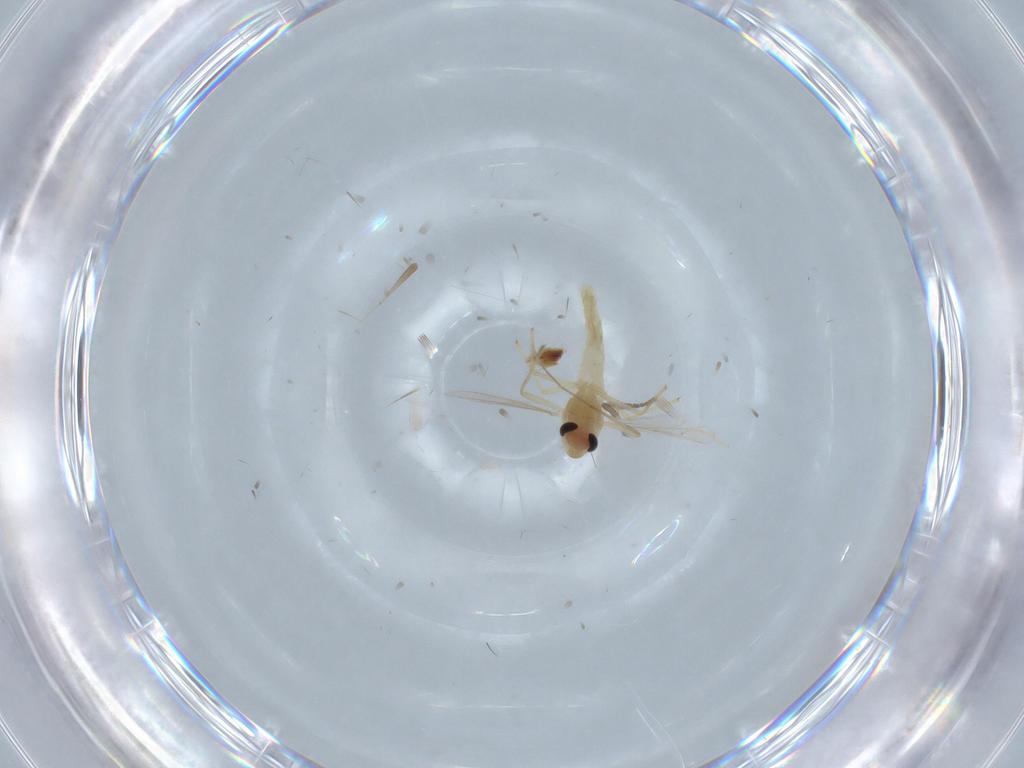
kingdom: Animalia
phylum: Arthropoda
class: Insecta
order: Diptera
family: Chironomidae
